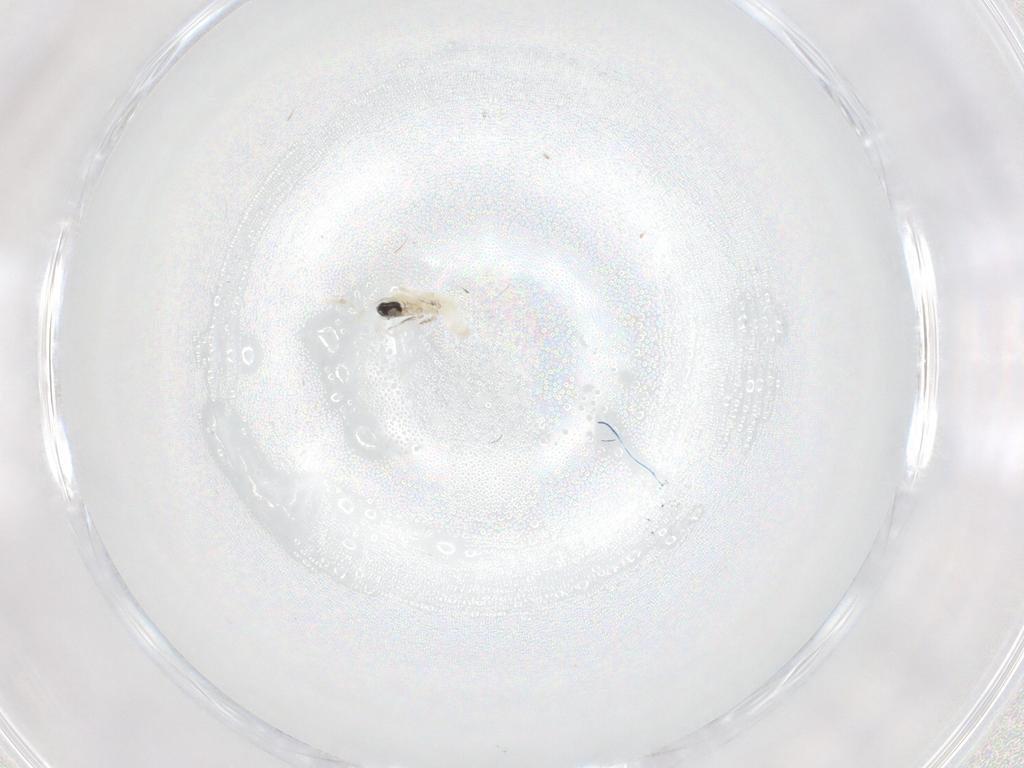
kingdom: Animalia
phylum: Arthropoda
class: Insecta
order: Diptera
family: Cecidomyiidae
